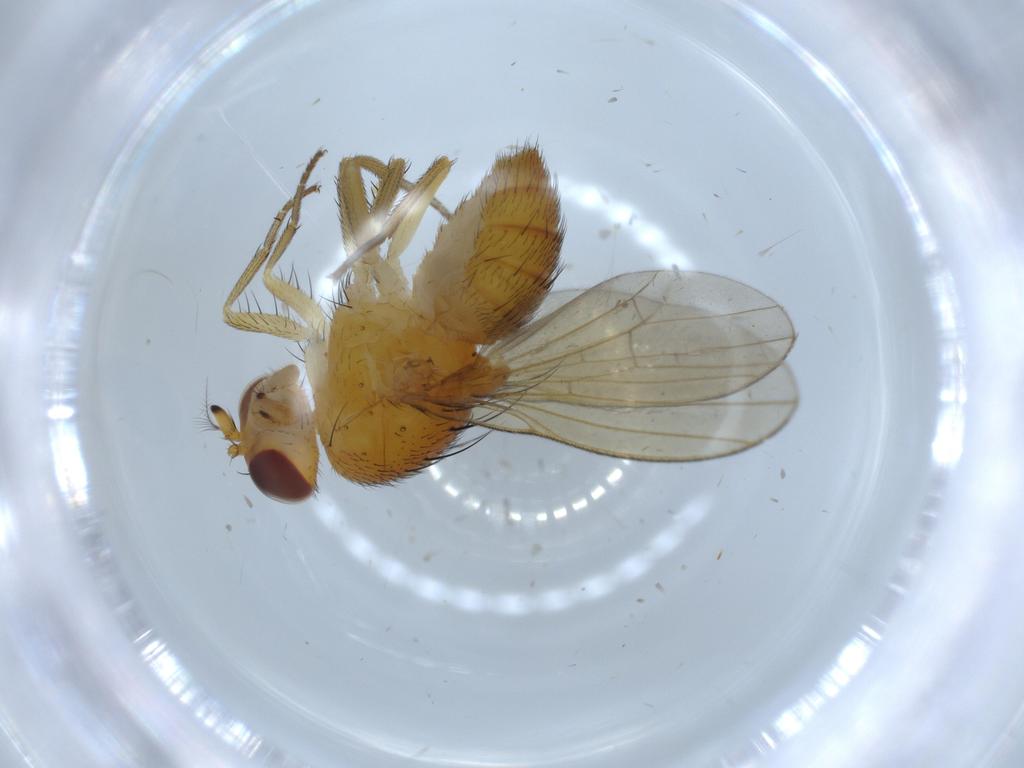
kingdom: Animalia
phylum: Arthropoda
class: Insecta
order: Diptera
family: Lauxaniidae
